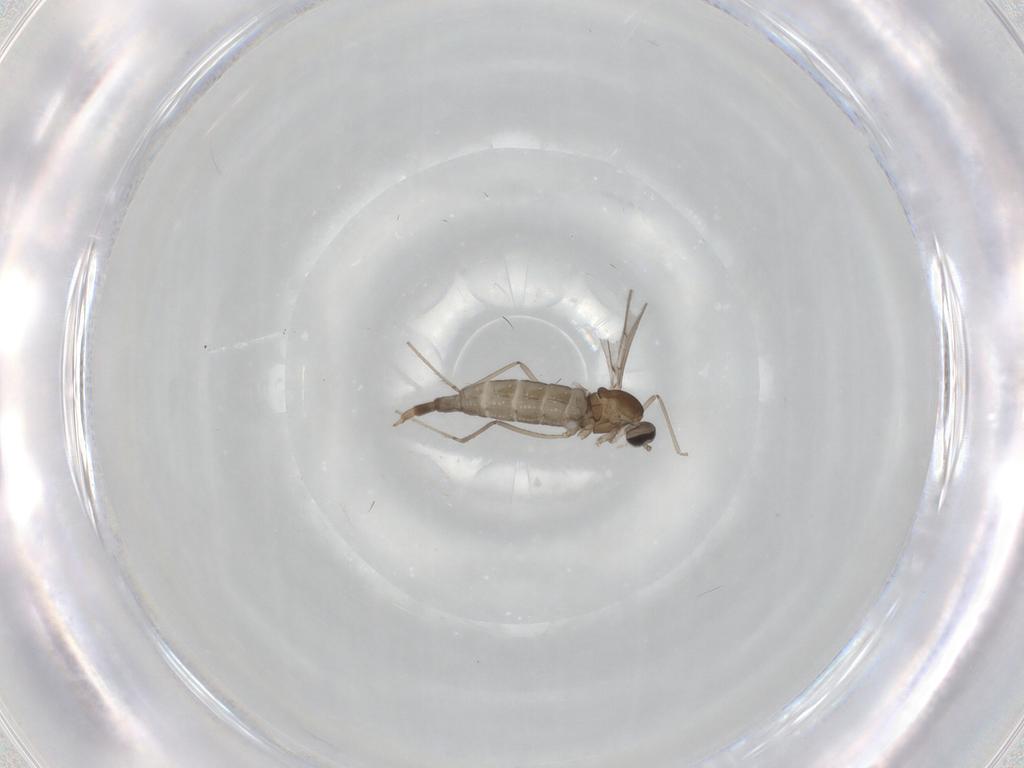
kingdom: Animalia
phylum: Arthropoda
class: Insecta
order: Diptera
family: Cecidomyiidae
